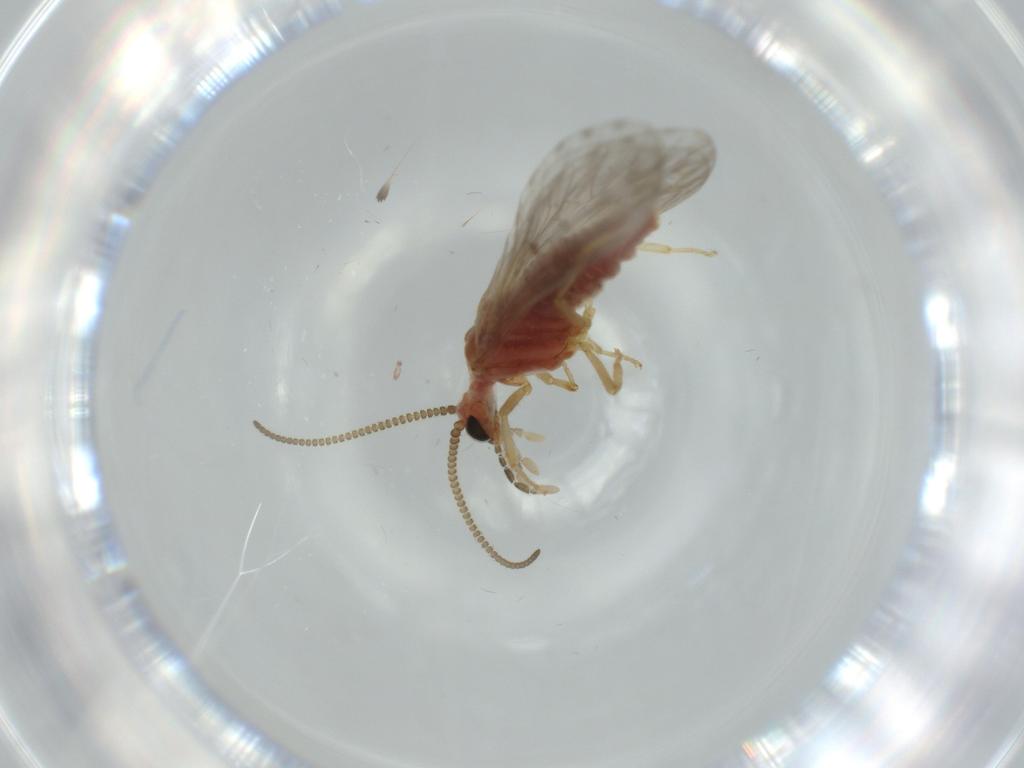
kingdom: Animalia
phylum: Arthropoda
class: Insecta
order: Neuroptera
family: Coniopterygidae
